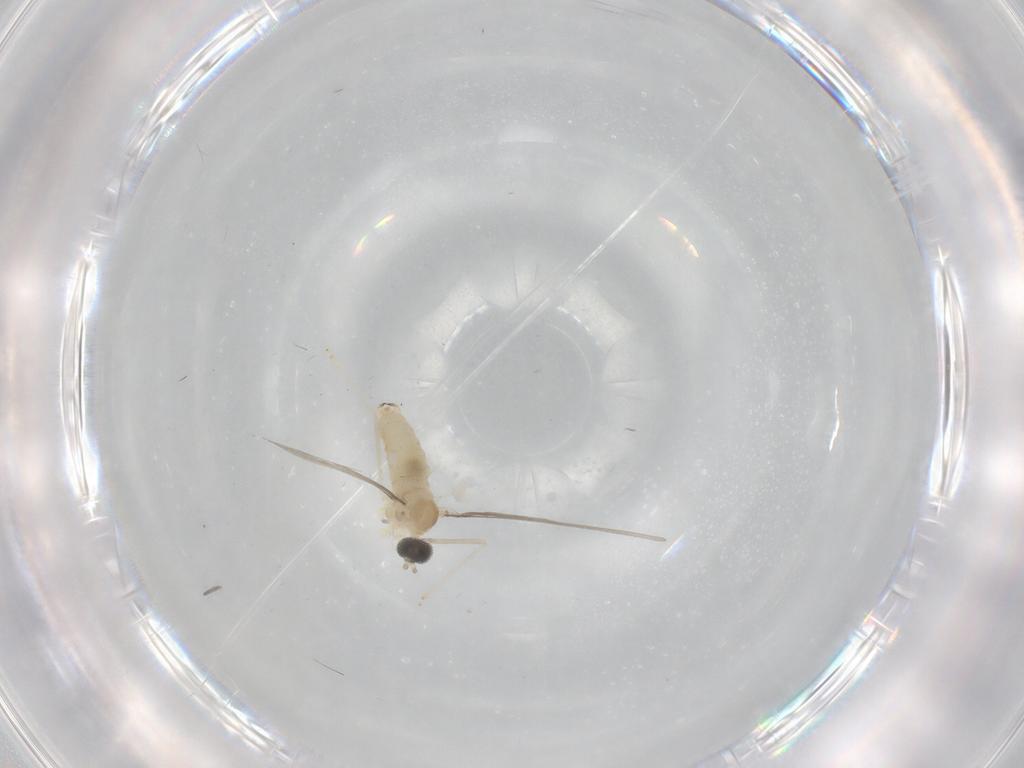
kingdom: Animalia
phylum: Arthropoda
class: Insecta
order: Diptera
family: Cecidomyiidae
